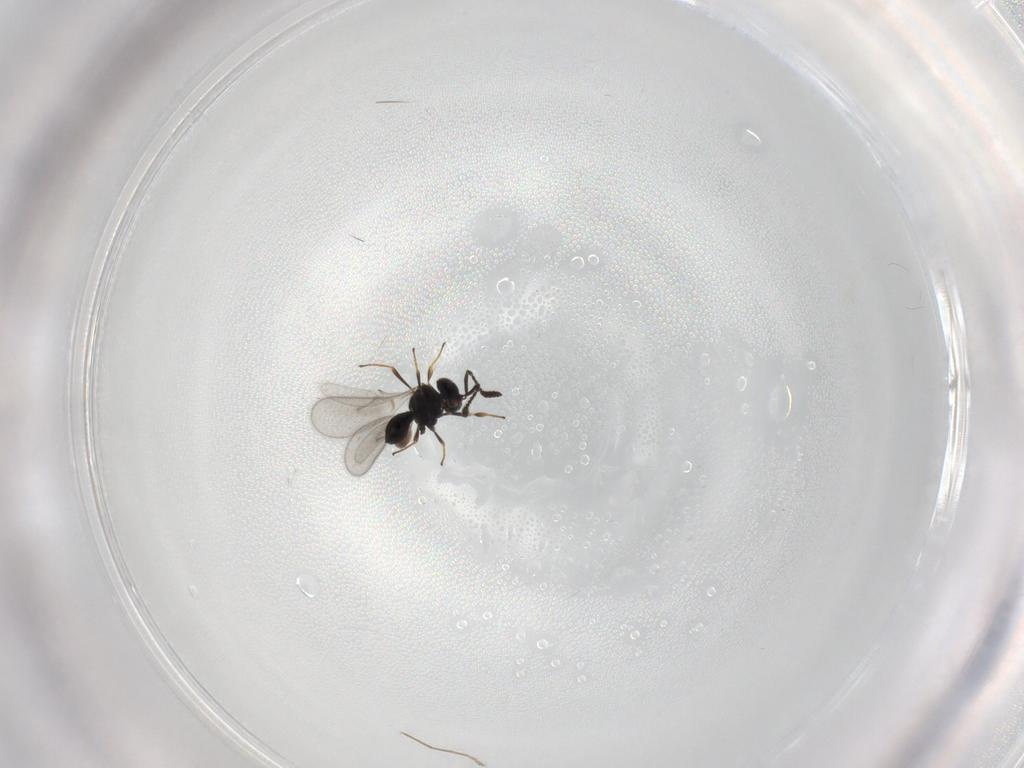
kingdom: Animalia
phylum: Arthropoda
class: Insecta
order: Hymenoptera
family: Scelionidae
